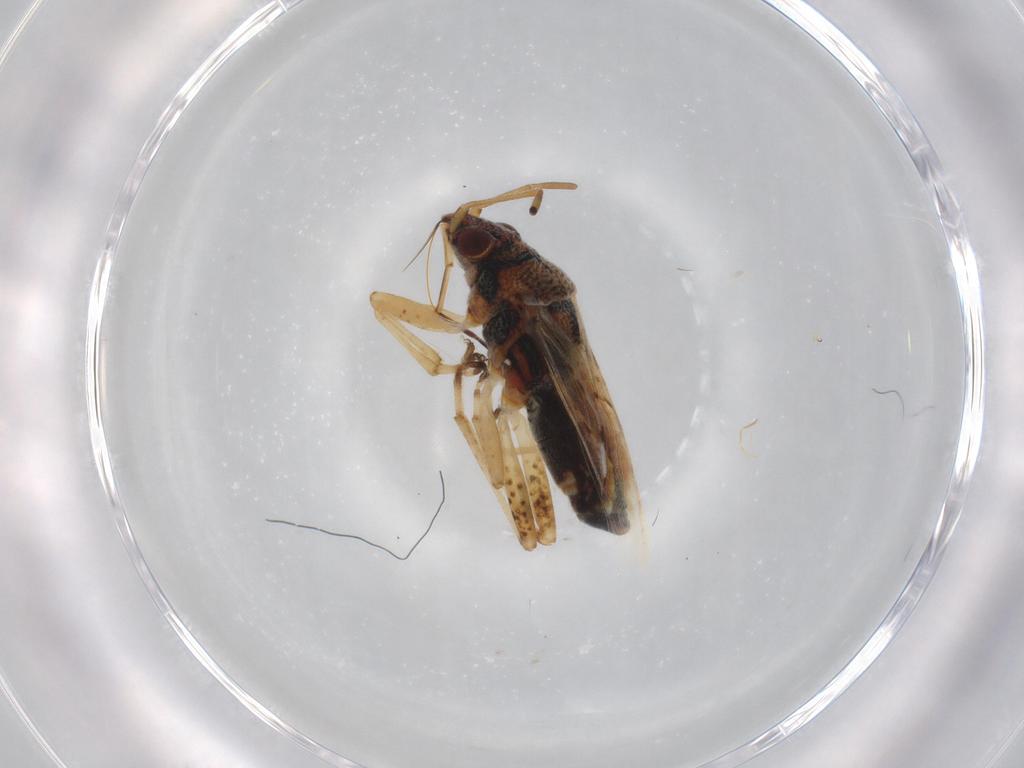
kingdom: Animalia
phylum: Arthropoda
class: Insecta
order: Hemiptera
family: Lygaeidae
